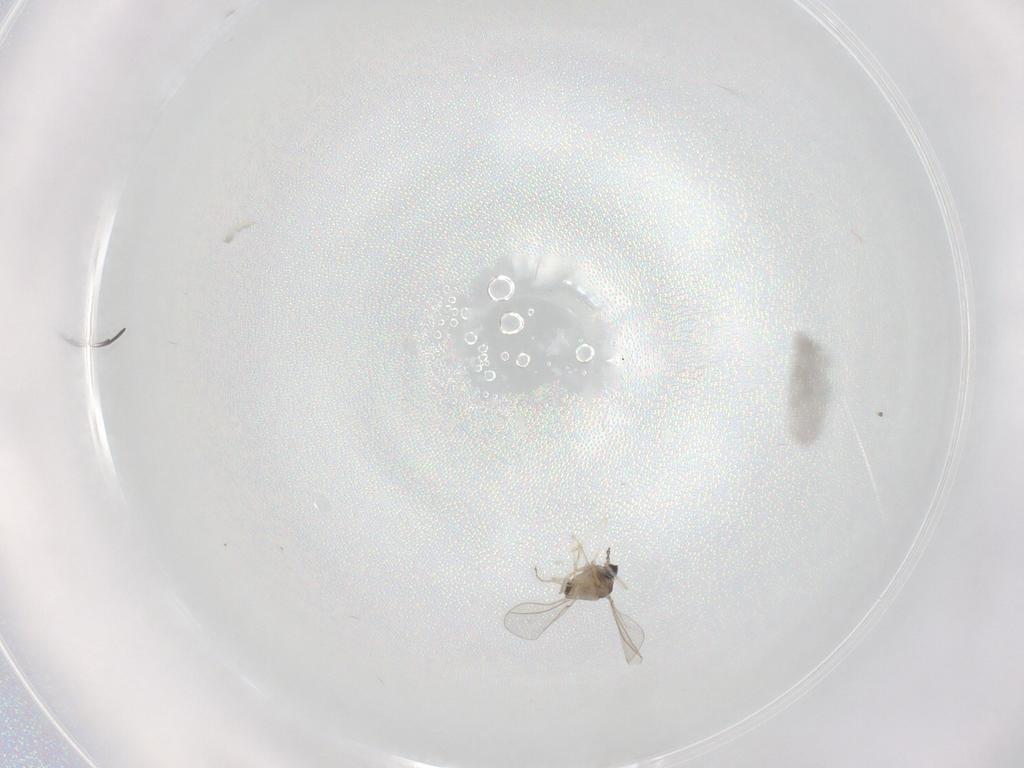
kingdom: Animalia
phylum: Arthropoda
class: Insecta
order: Diptera
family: Cecidomyiidae
